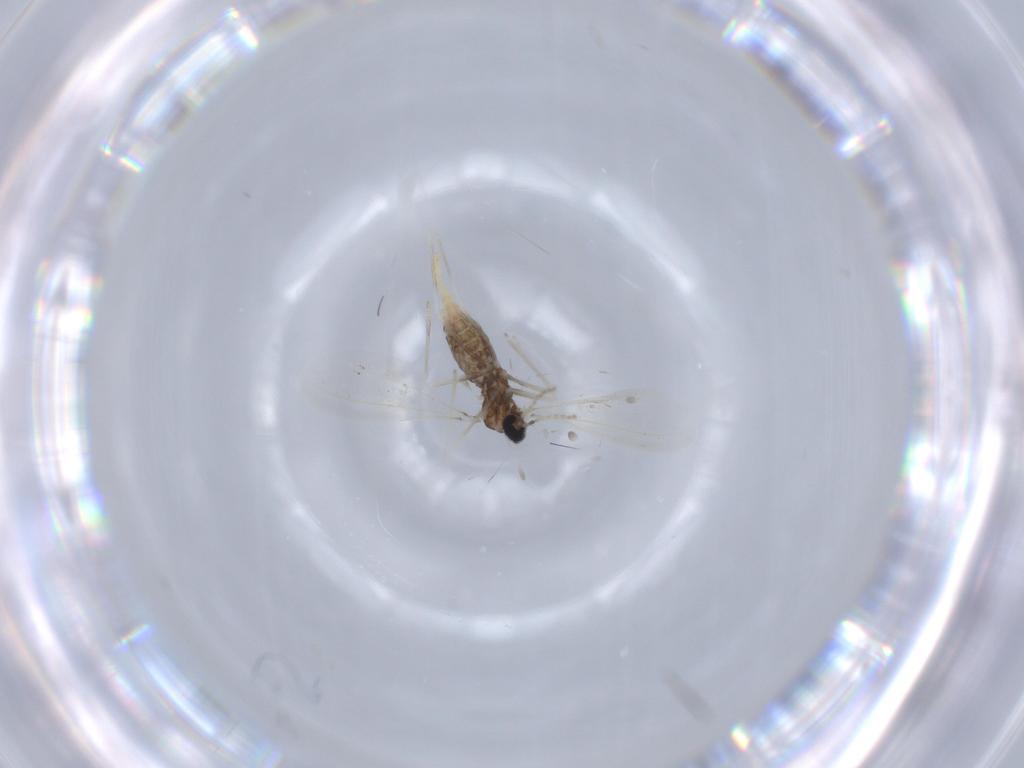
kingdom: Animalia
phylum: Arthropoda
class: Insecta
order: Diptera
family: Cecidomyiidae
